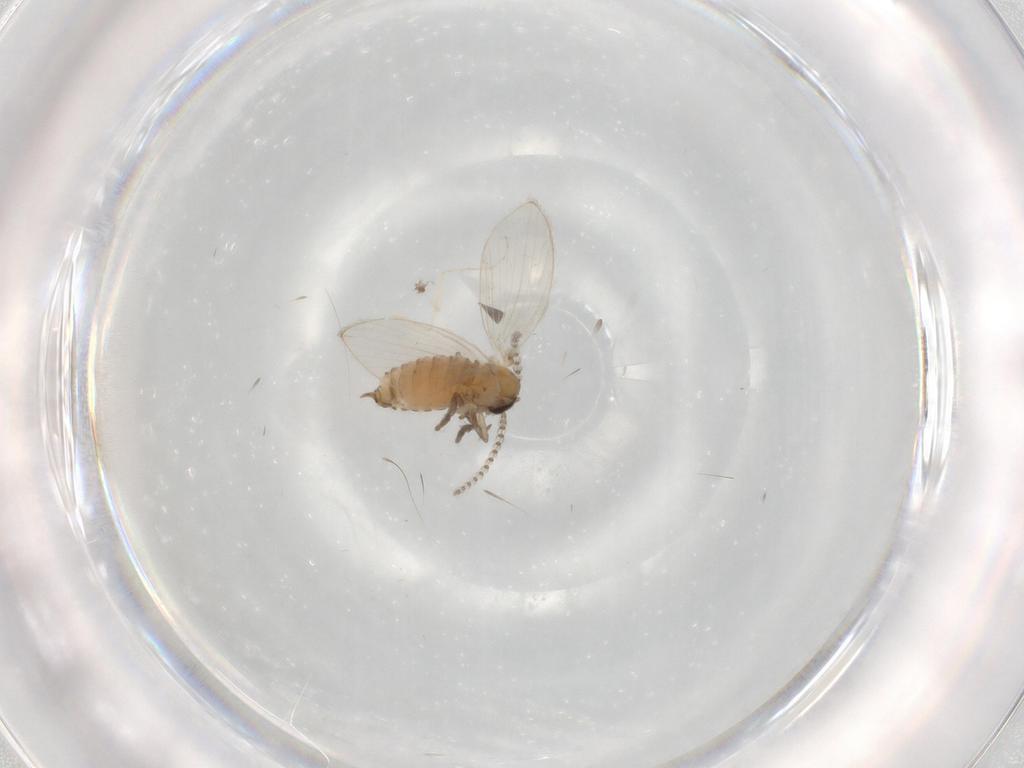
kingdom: Animalia
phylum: Arthropoda
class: Insecta
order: Diptera
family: Psychodidae
